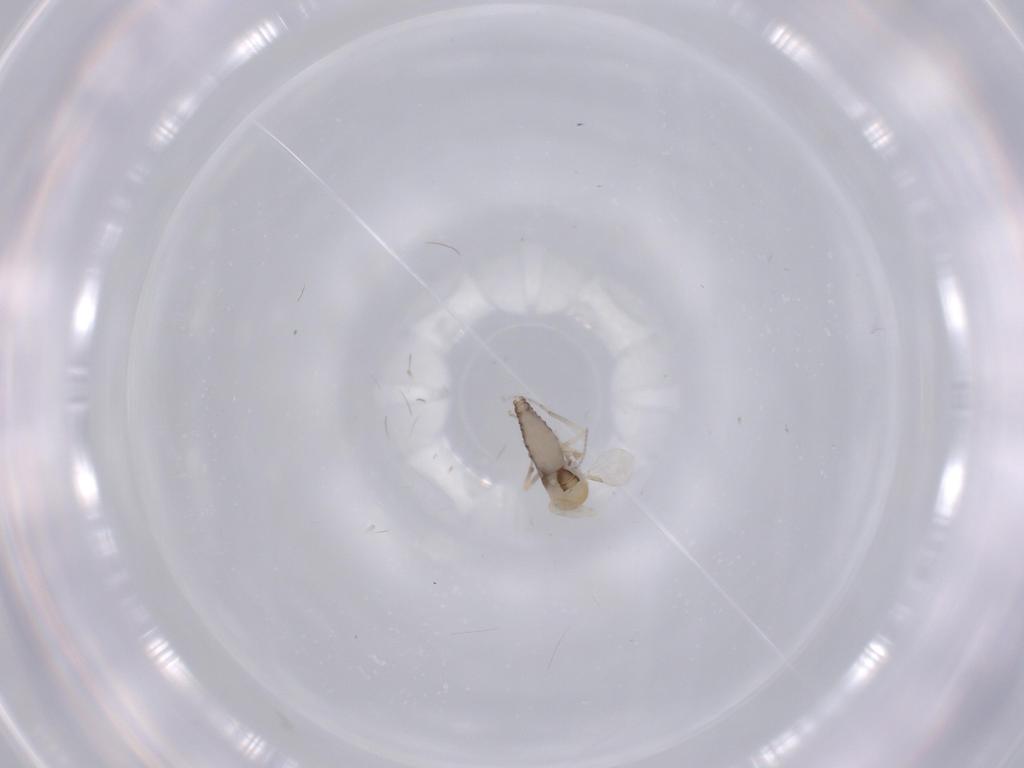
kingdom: Animalia
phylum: Arthropoda
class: Insecta
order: Diptera
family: Ceratopogonidae
